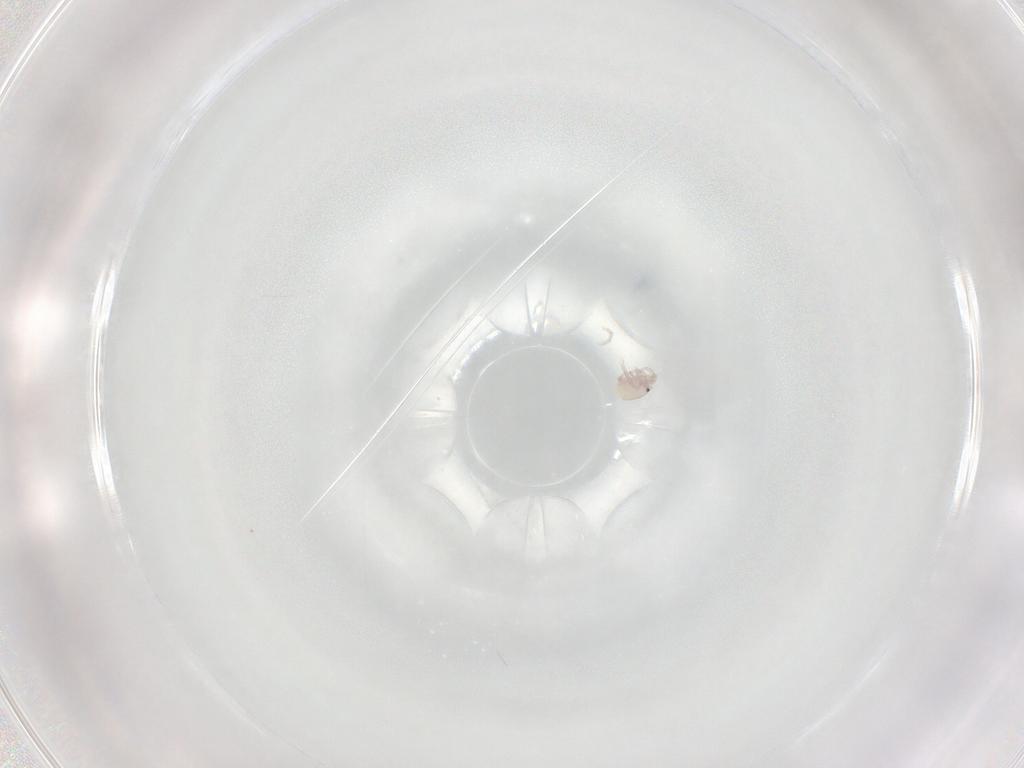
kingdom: Animalia
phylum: Arthropoda
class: Arachnida
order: Trombidiformes
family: Lebertiidae
